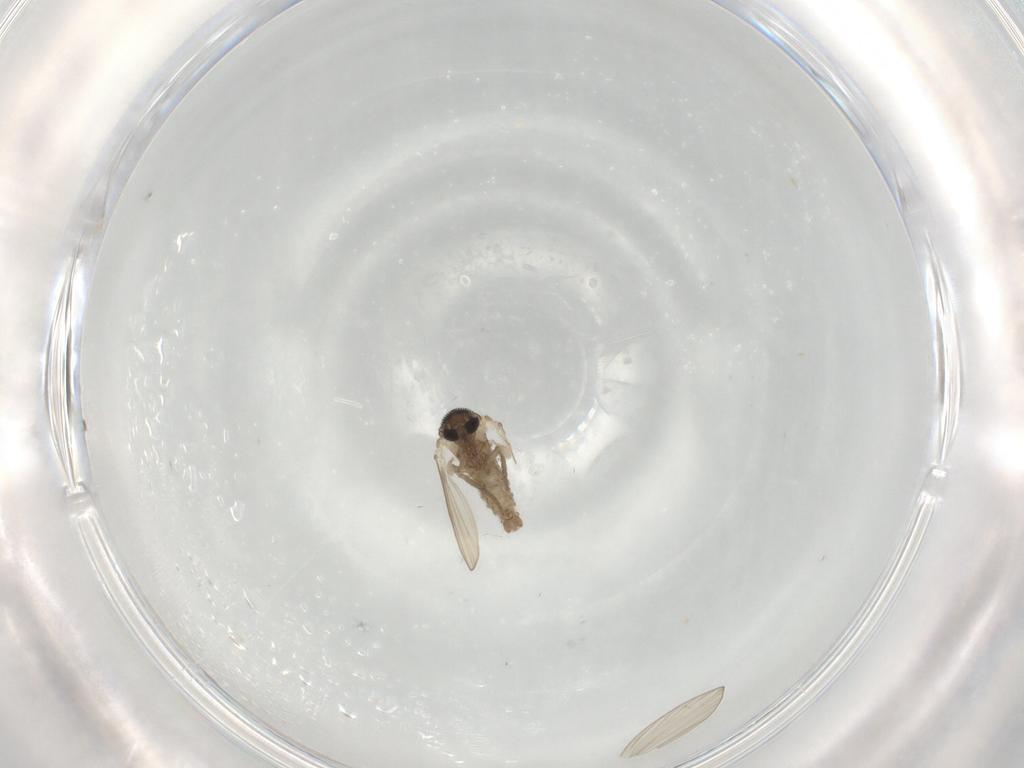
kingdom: Animalia
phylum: Arthropoda
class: Insecta
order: Diptera
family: Psychodidae
